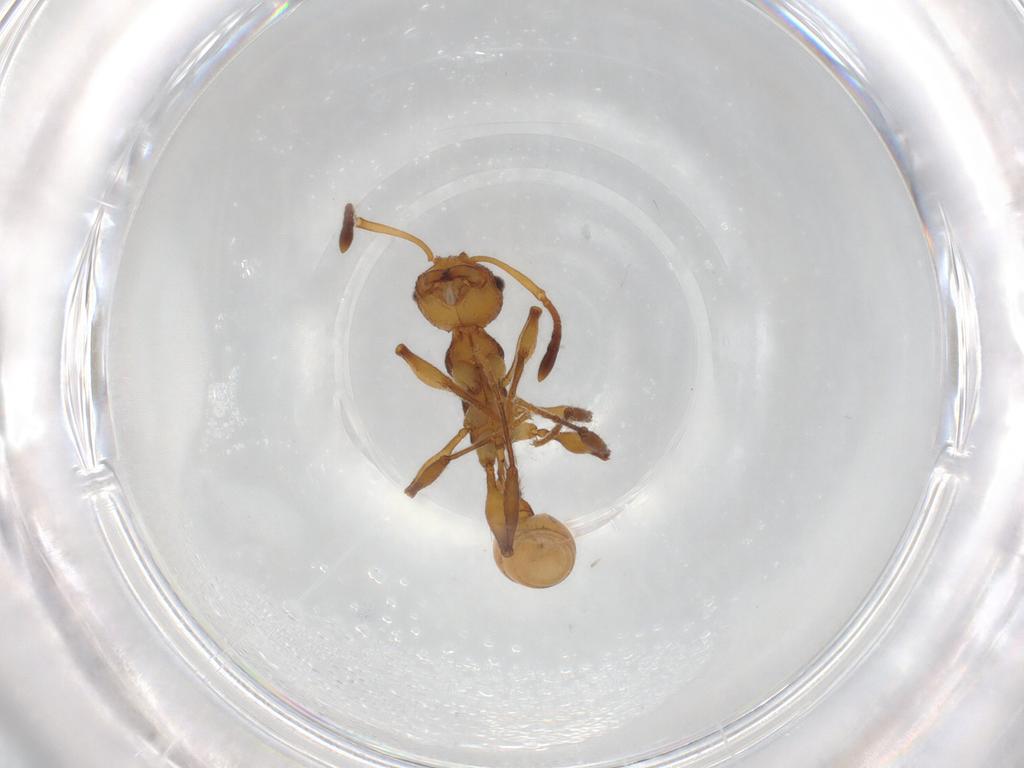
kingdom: Animalia
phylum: Arthropoda
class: Insecta
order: Hymenoptera
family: Formicidae
